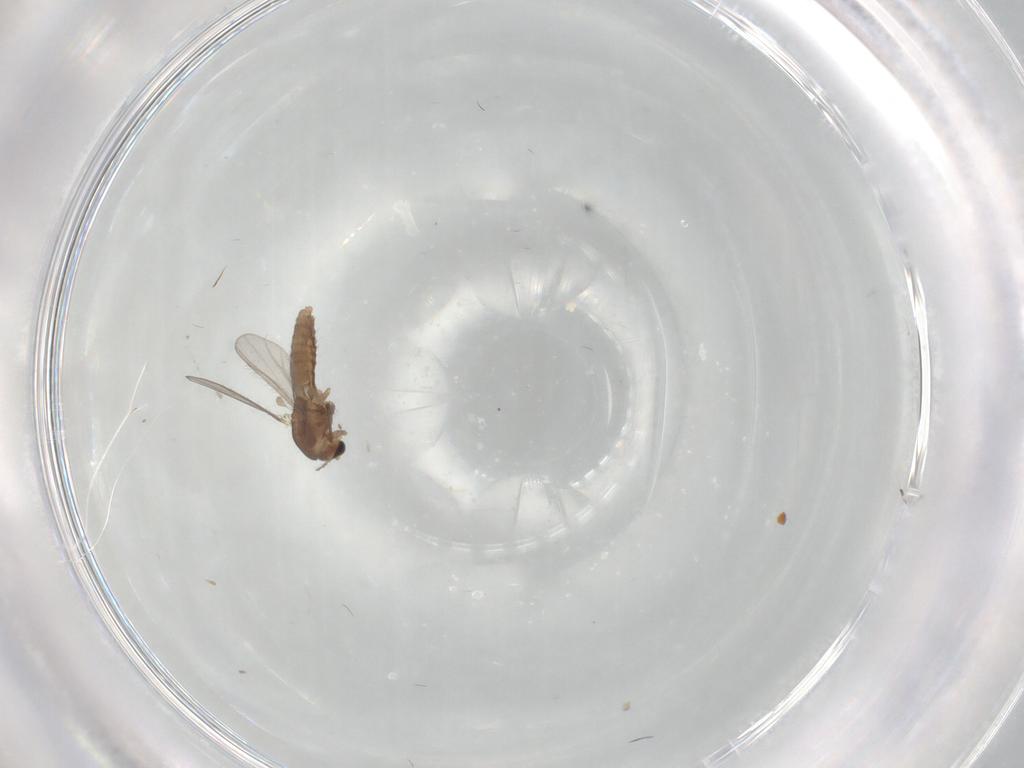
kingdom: Animalia
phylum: Arthropoda
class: Insecta
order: Diptera
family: Chironomidae
